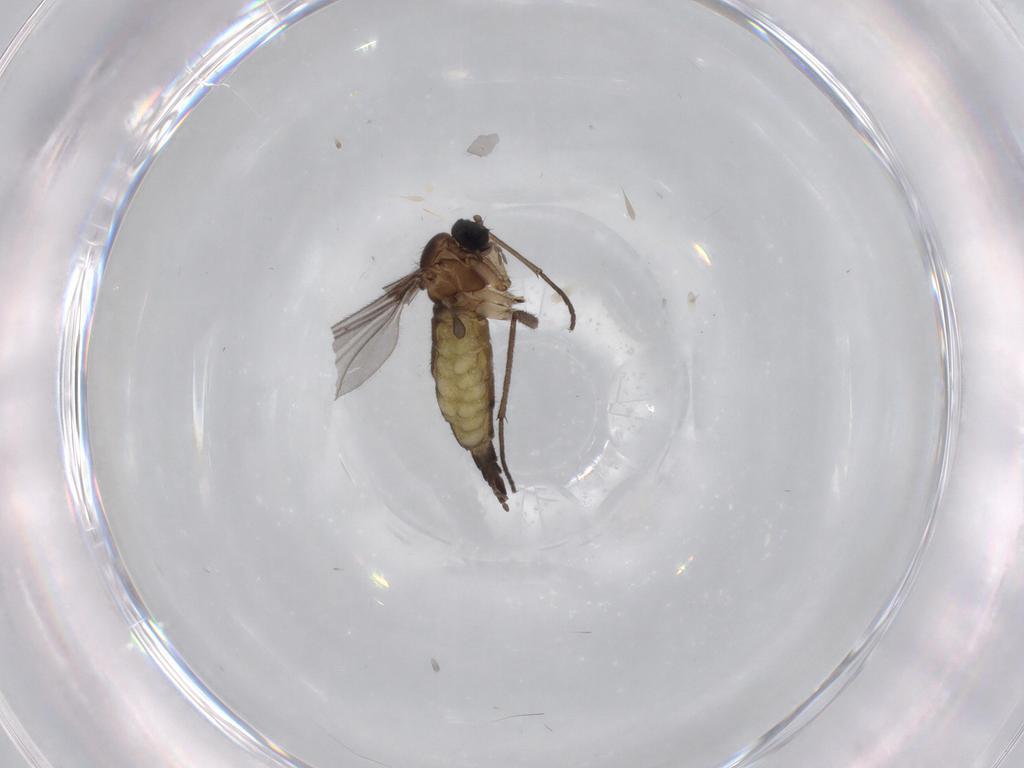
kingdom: Animalia
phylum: Arthropoda
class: Insecta
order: Diptera
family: Sciaridae
